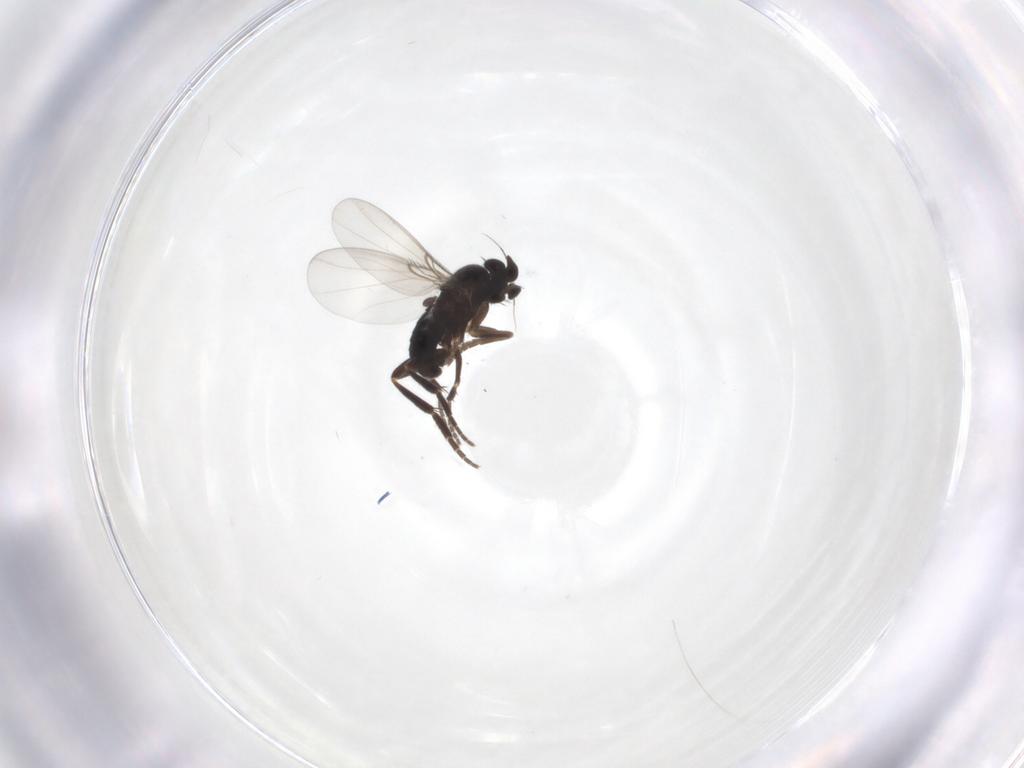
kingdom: Animalia
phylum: Arthropoda
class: Insecta
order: Diptera
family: Phoridae
